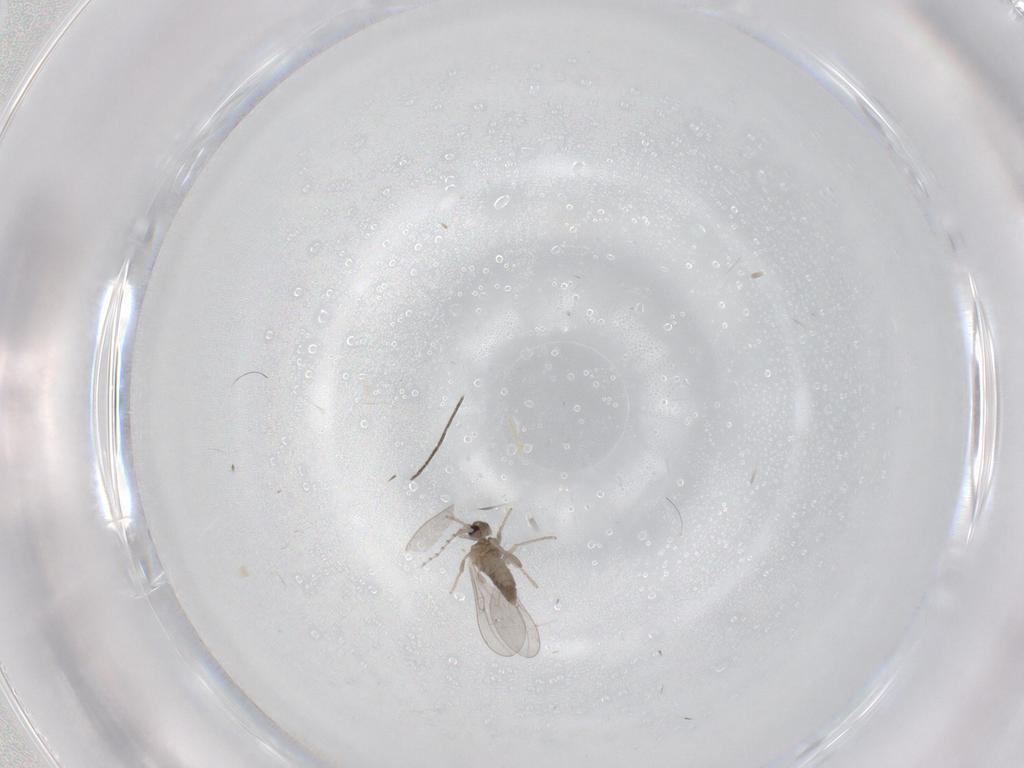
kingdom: Animalia
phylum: Arthropoda
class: Insecta
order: Diptera
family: Cecidomyiidae
